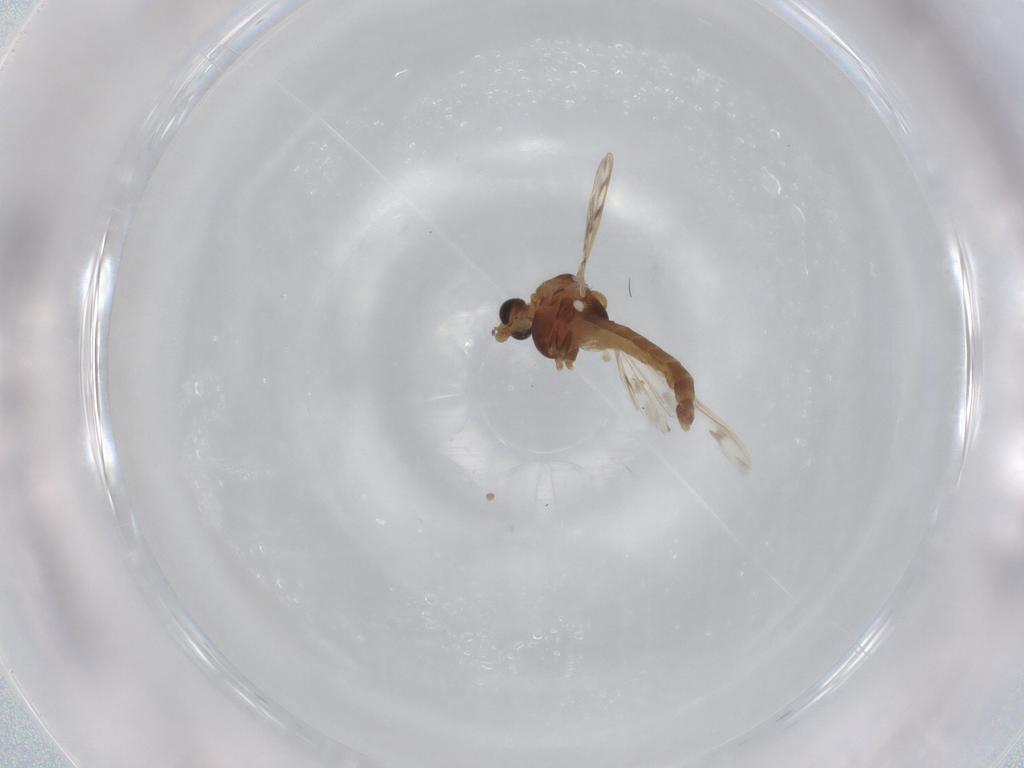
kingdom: Animalia
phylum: Arthropoda
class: Insecta
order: Diptera
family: Chironomidae
